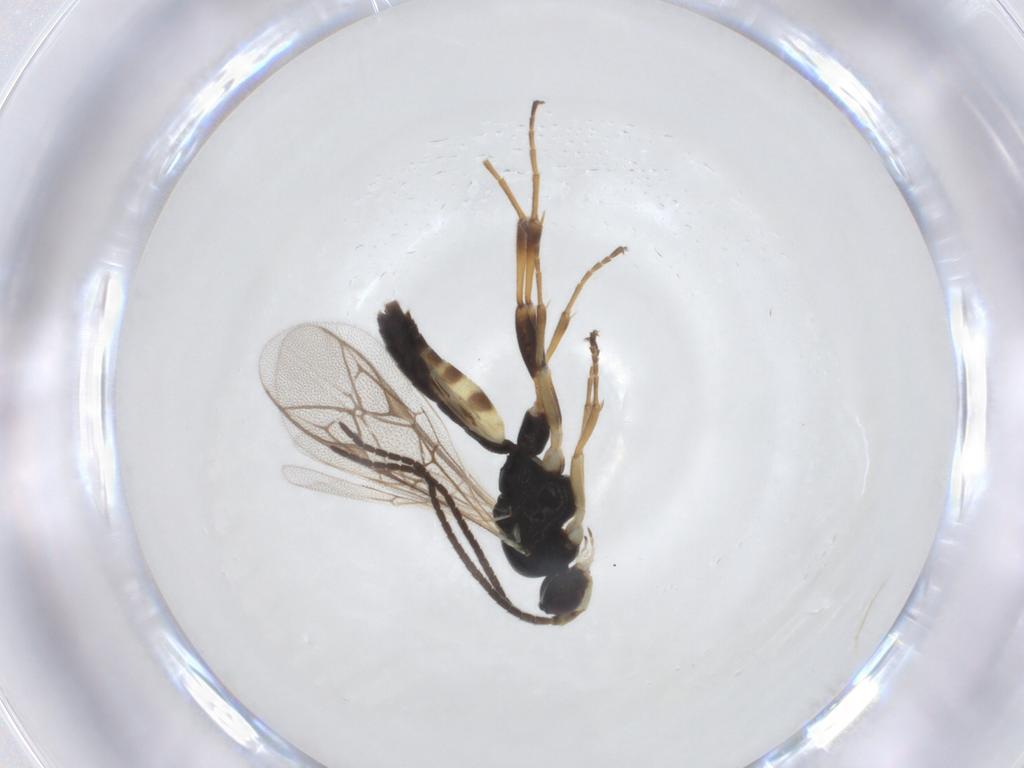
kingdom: Animalia
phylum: Arthropoda
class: Insecta
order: Hymenoptera
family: Ichneumonidae
